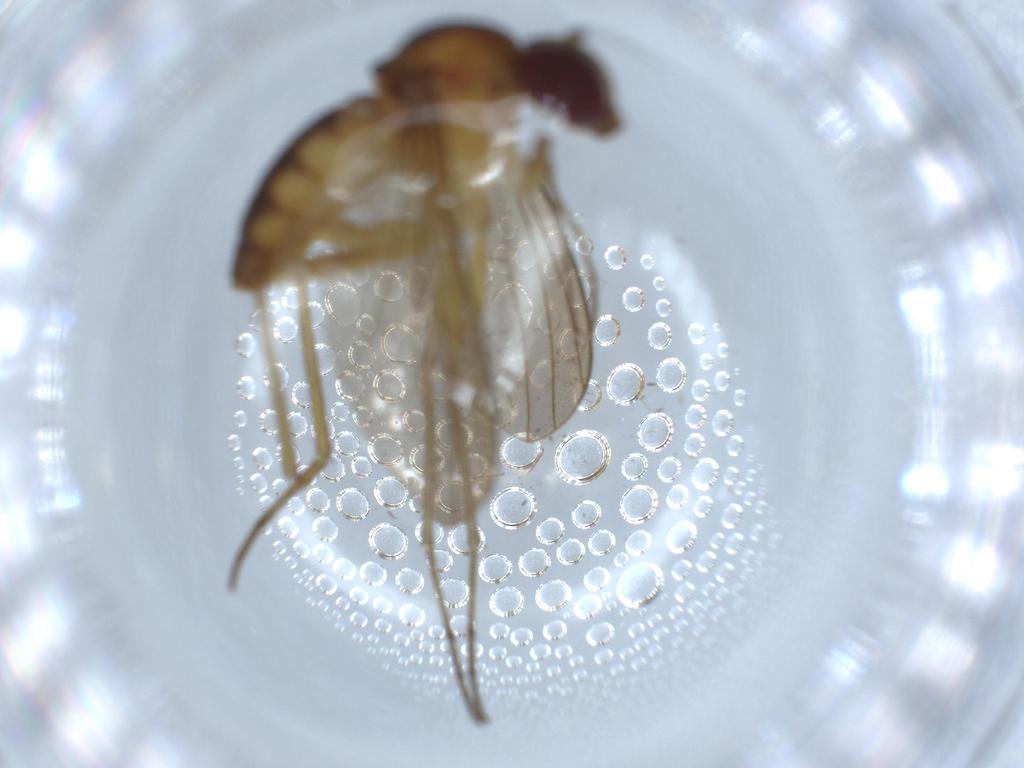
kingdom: Animalia
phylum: Arthropoda
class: Insecta
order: Diptera
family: Dolichopodidae
